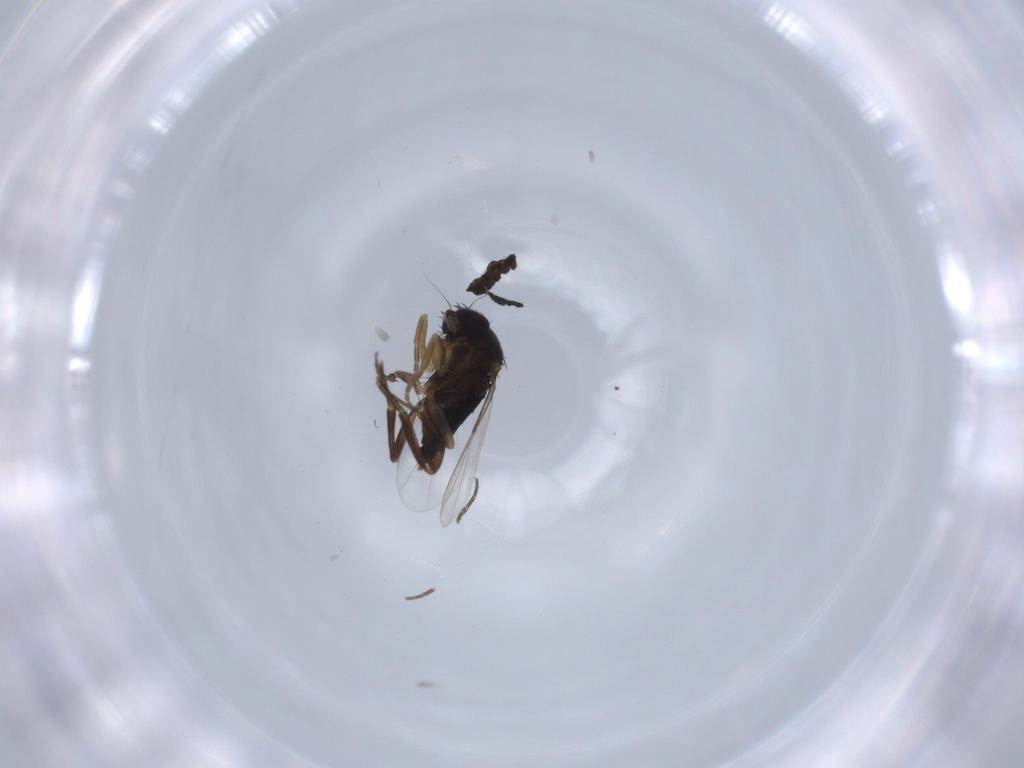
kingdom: Animalia
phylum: Arthropoda
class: Insecta
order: Diptera
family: Phoridae
